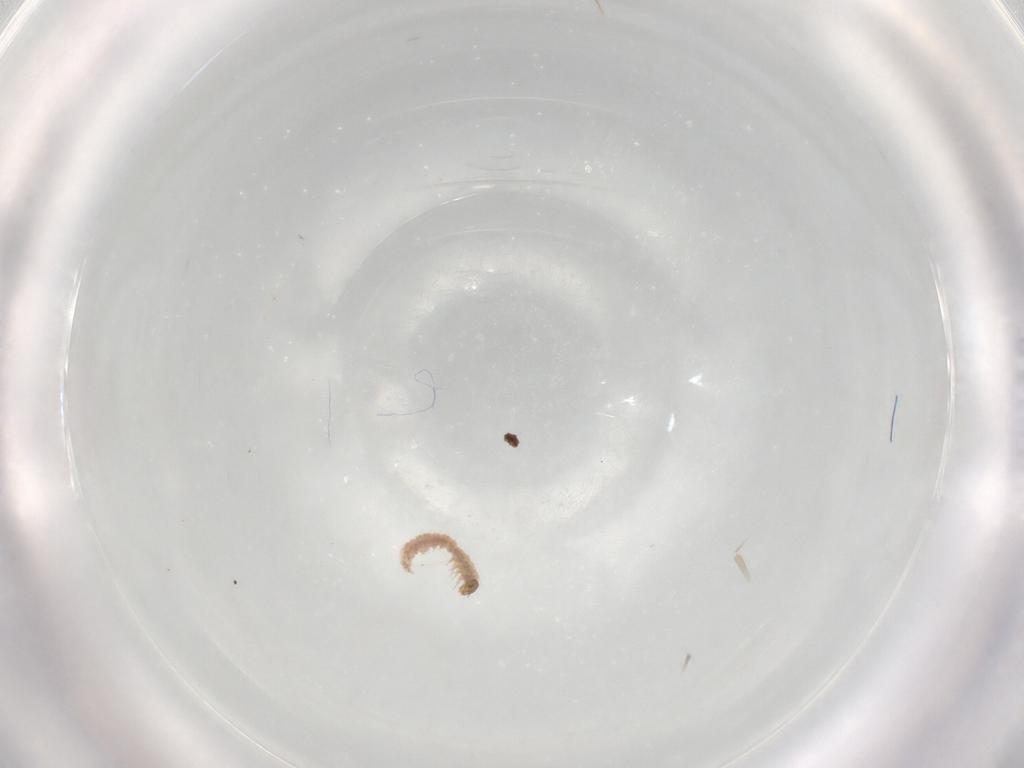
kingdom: Animalia
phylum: Arthropoda
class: Insecta
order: Lepidoptera
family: Pterophoridae
